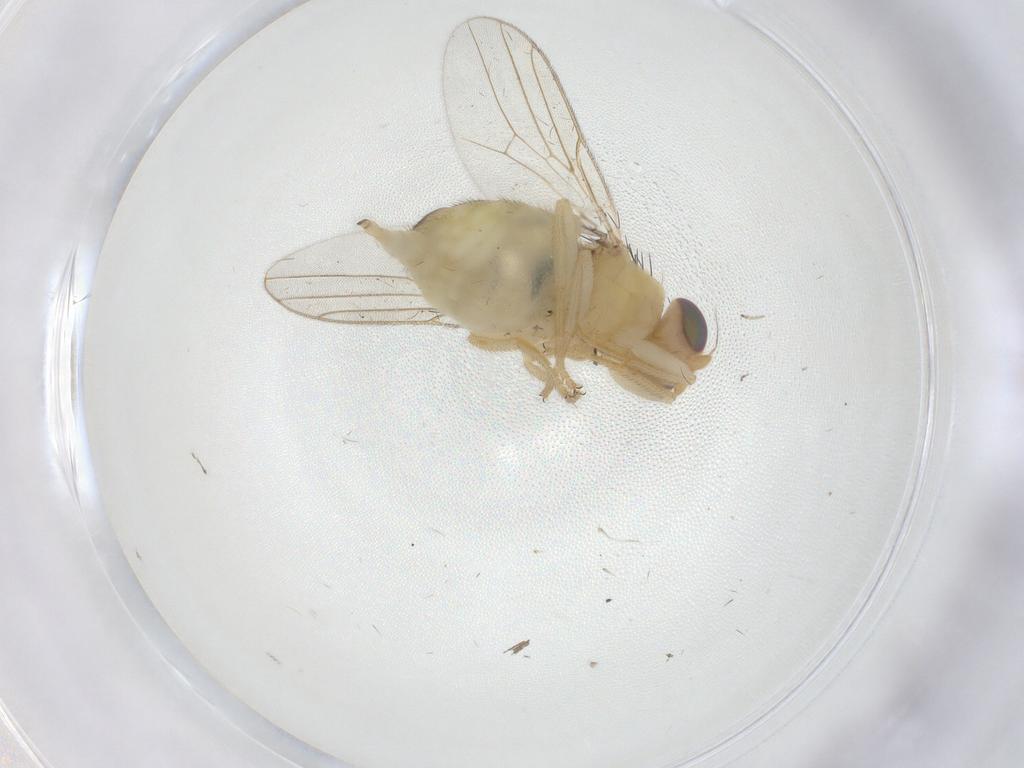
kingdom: Animalia
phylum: Arthropoda
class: Insecta
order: Diptera
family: Chloropidae
